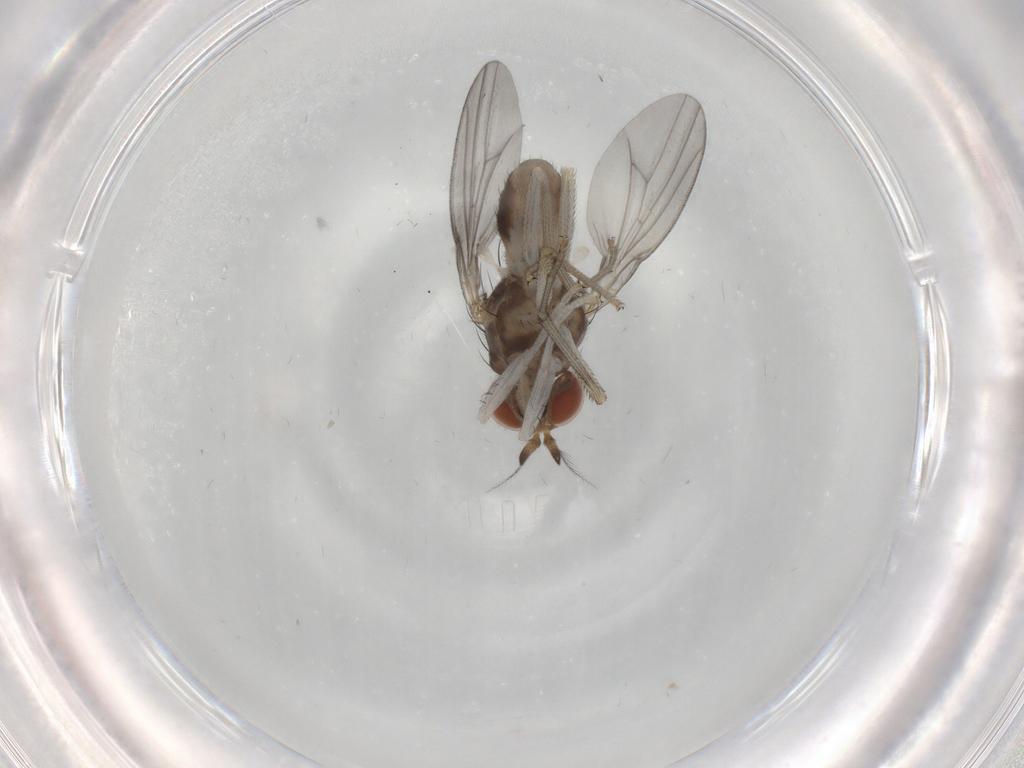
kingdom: Animalia
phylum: Arthropoda
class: Insecta
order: Diptera
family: Lauxaniidae
